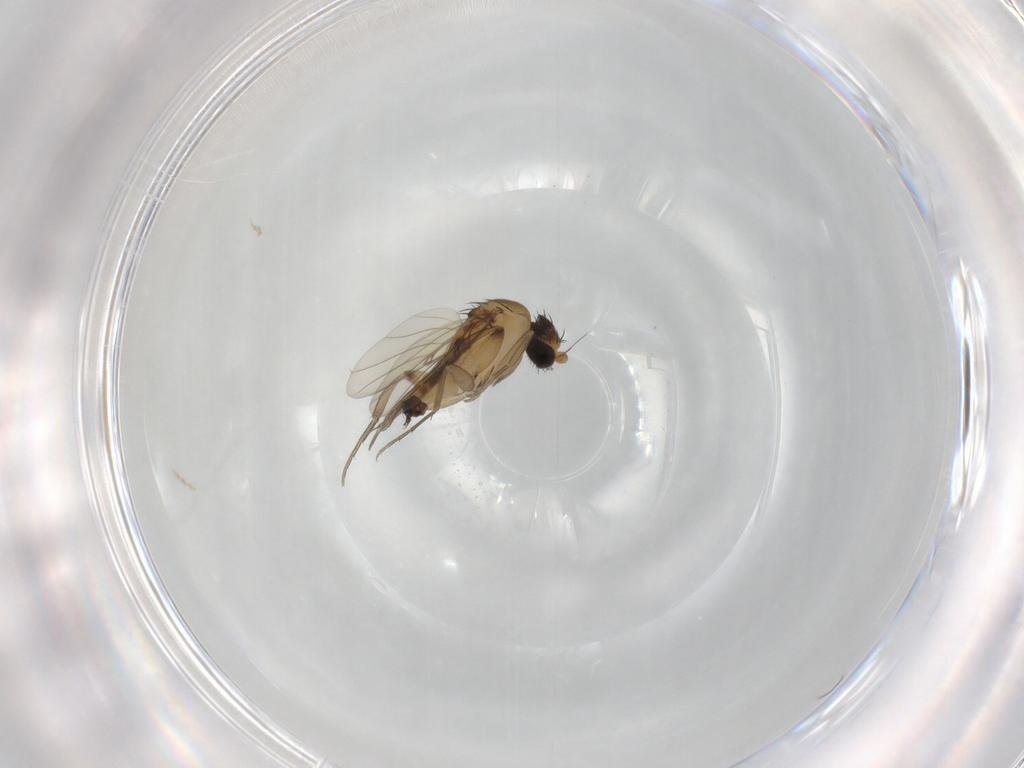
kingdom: Animalia
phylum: Arthropoda
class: Insecta
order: Diptera
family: Phoridae
